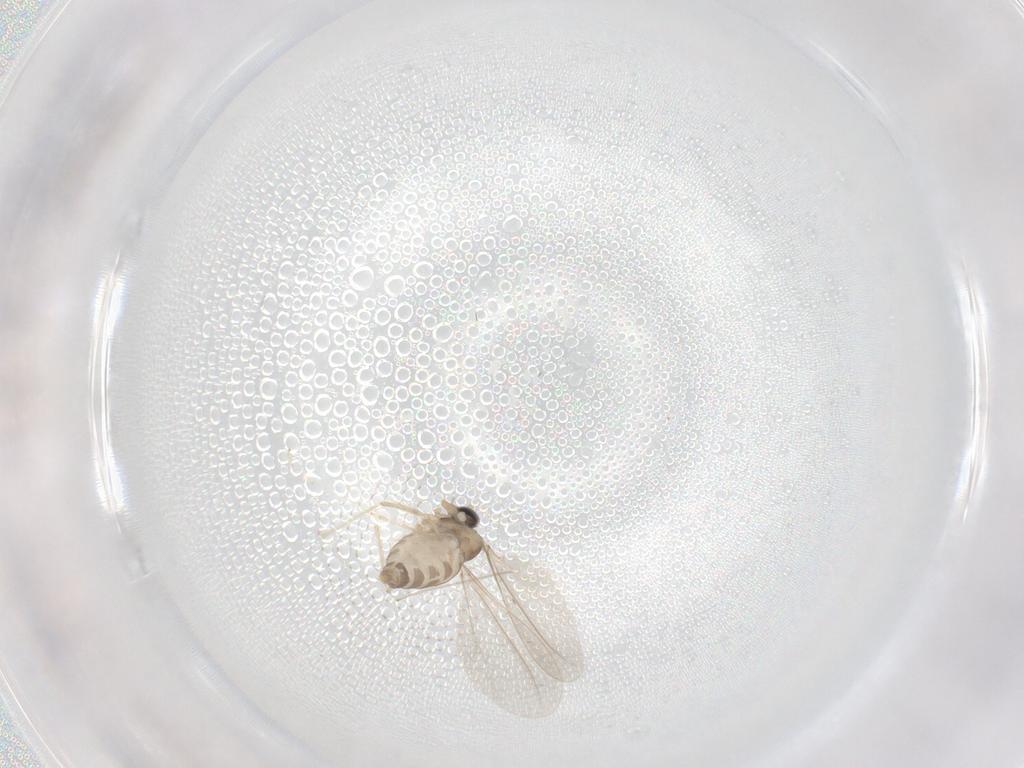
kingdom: Animalia
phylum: Arthropoda
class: Insecta
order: Diptera
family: Cecidomyiidae
